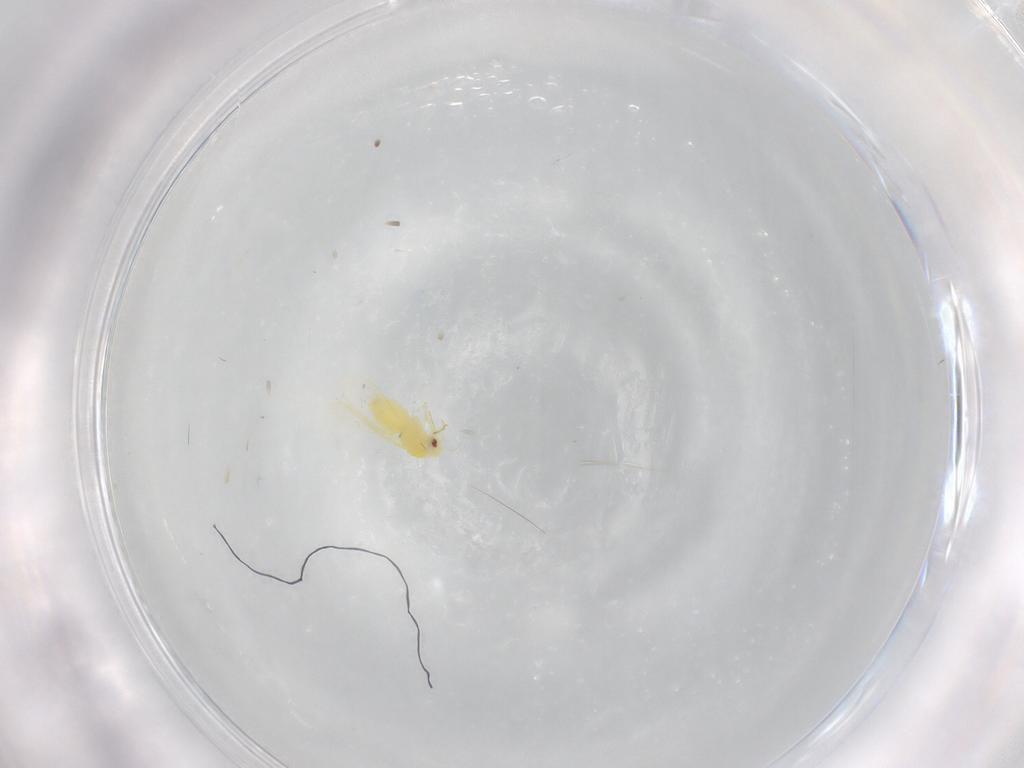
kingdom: Animalia
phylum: Arthropoda
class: Insecta
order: Hemiptera
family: Aleyrodidae
